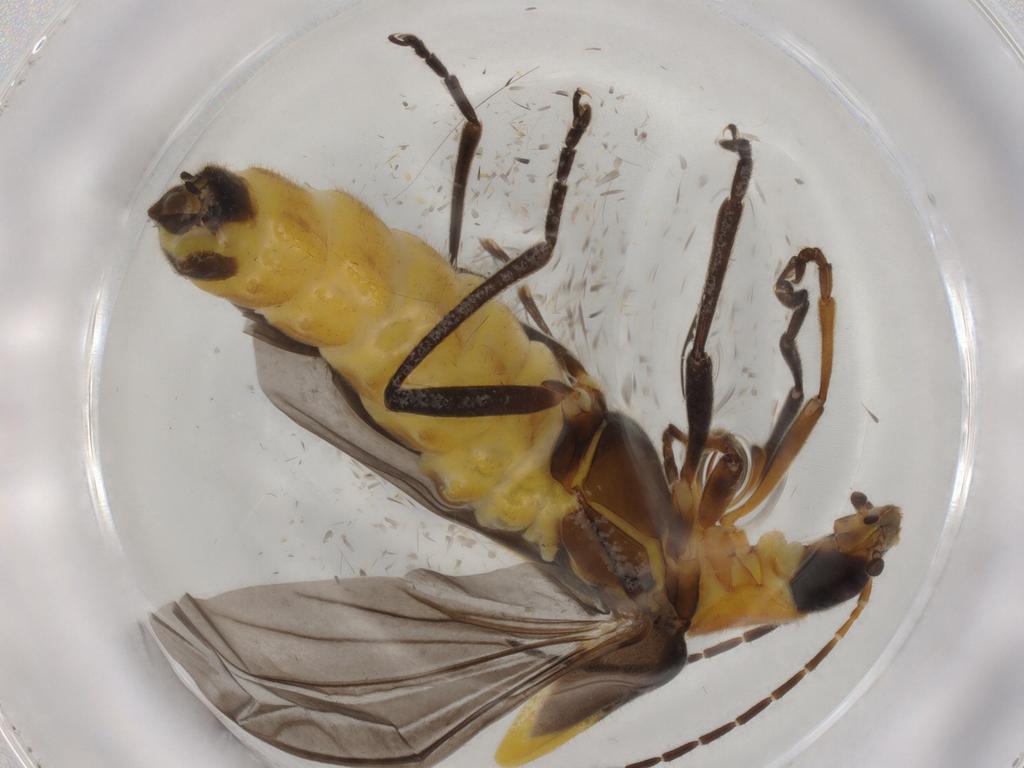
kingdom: Animalia
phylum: Arthropoda
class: Insecta
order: Coleoptera
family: Cantharidae
